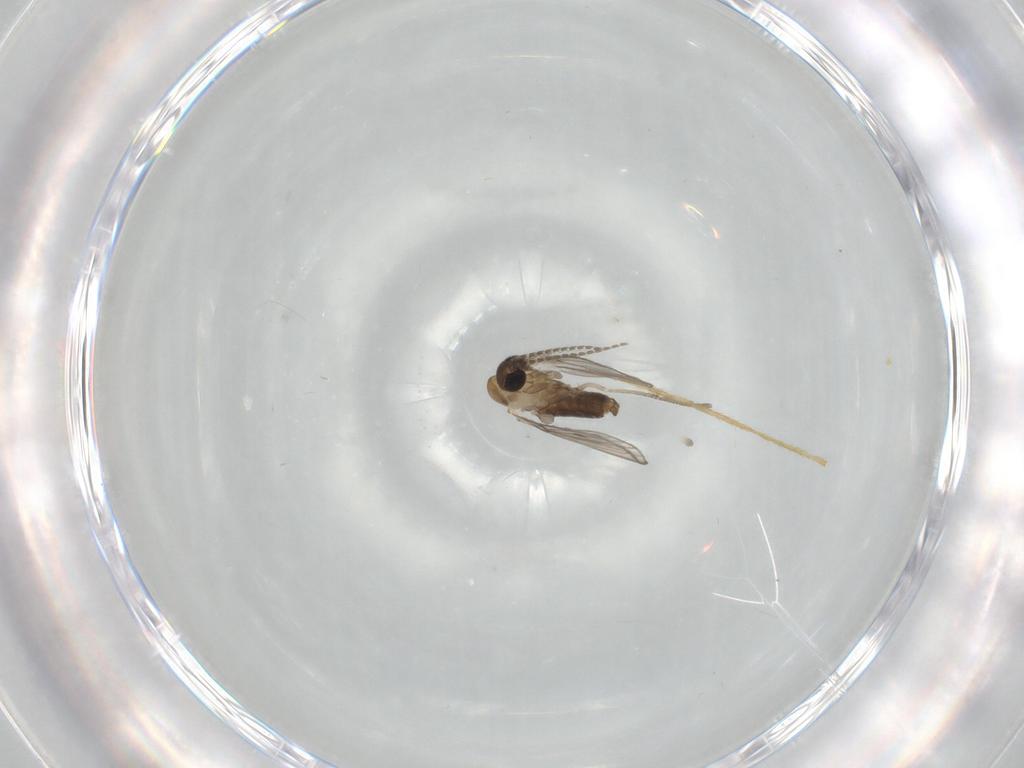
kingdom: Animalia
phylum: Arthropoda
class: Insecta
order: Diptera
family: Psychodidae
